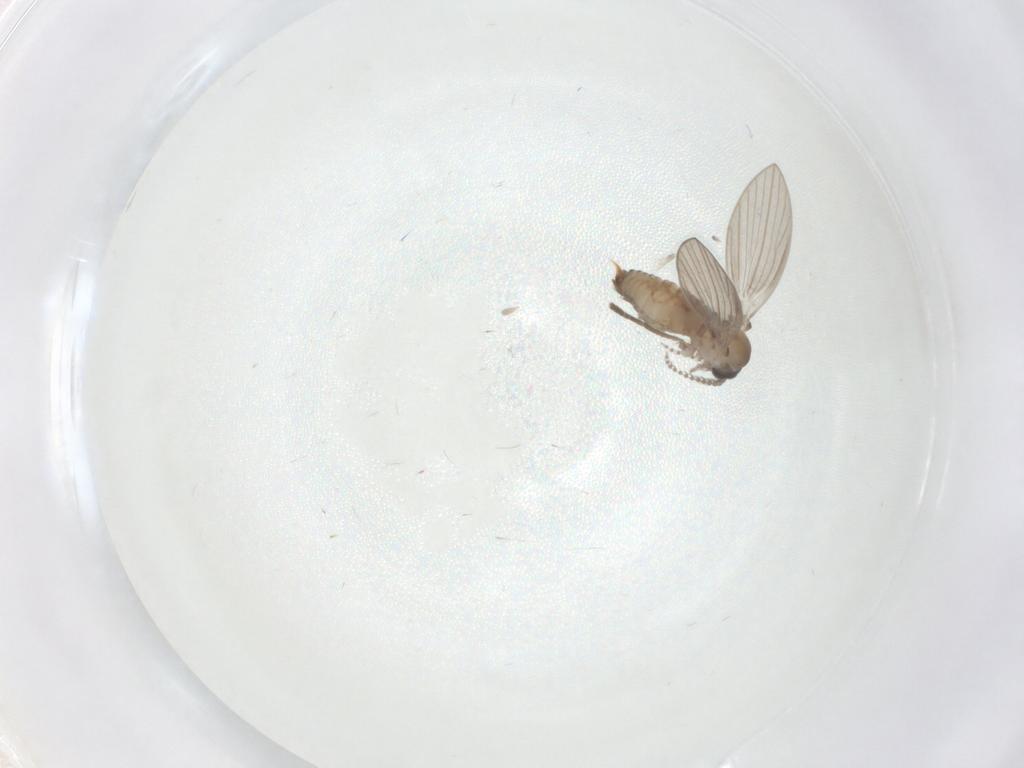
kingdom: Animalia
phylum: Arthropoda
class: Insecta
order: Diptera
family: Psychodidae
